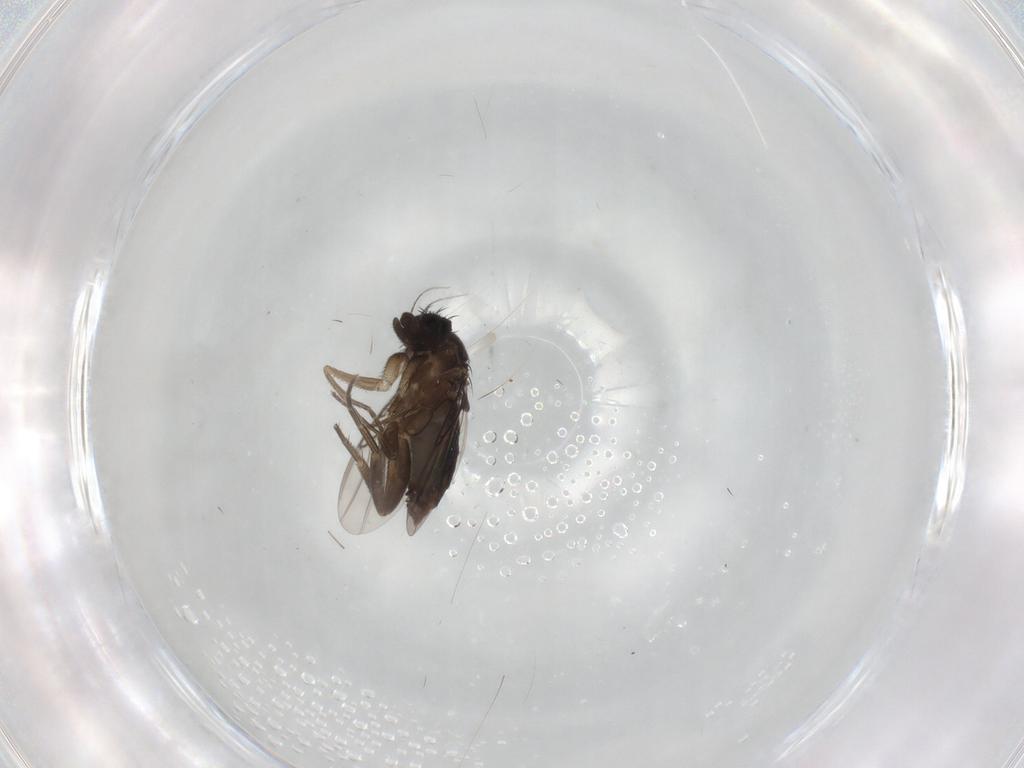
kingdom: Animalia
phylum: Arthropoda
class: Insecta
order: Diptera
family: Phoridae
